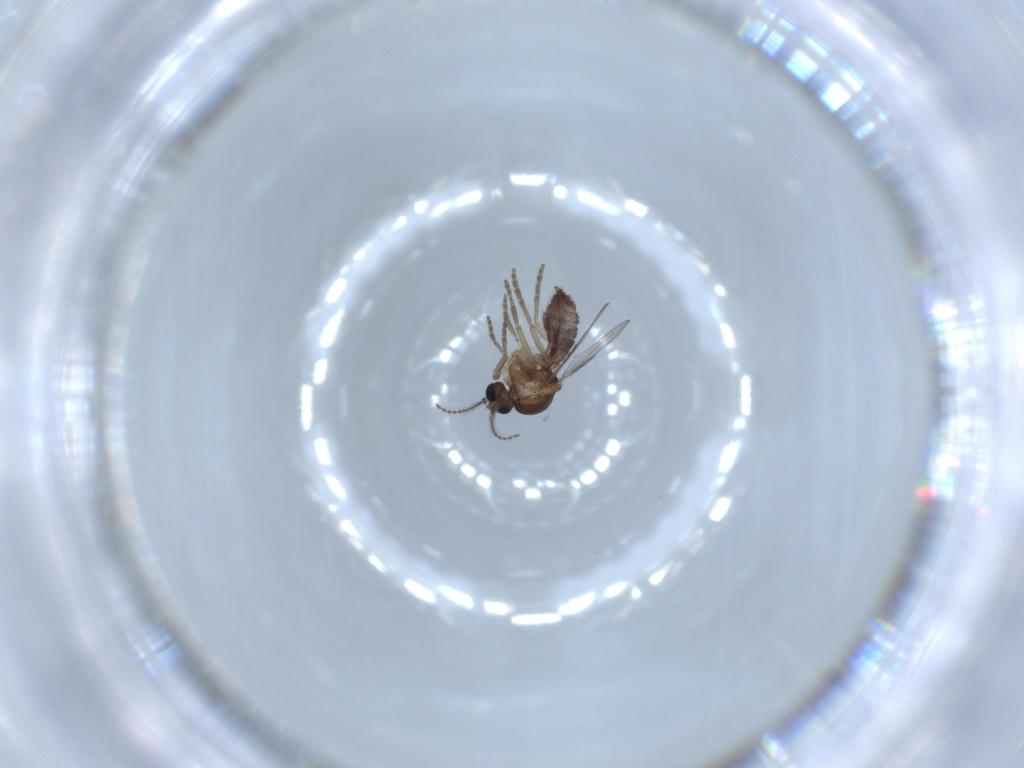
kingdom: Animalia
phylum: Arthropoda
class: Insecta
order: Diptera
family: Ceratopogonidae
